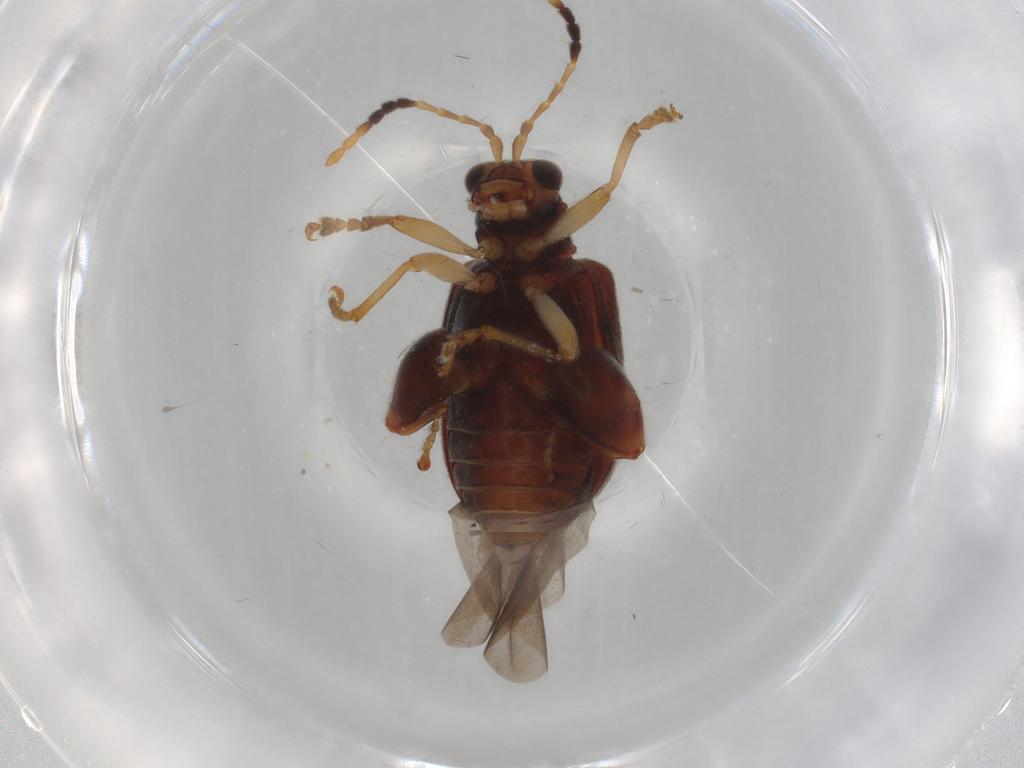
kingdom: Animalia
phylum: Arthropoda
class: Insecta
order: Coleoptera
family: Chrysomelidae
